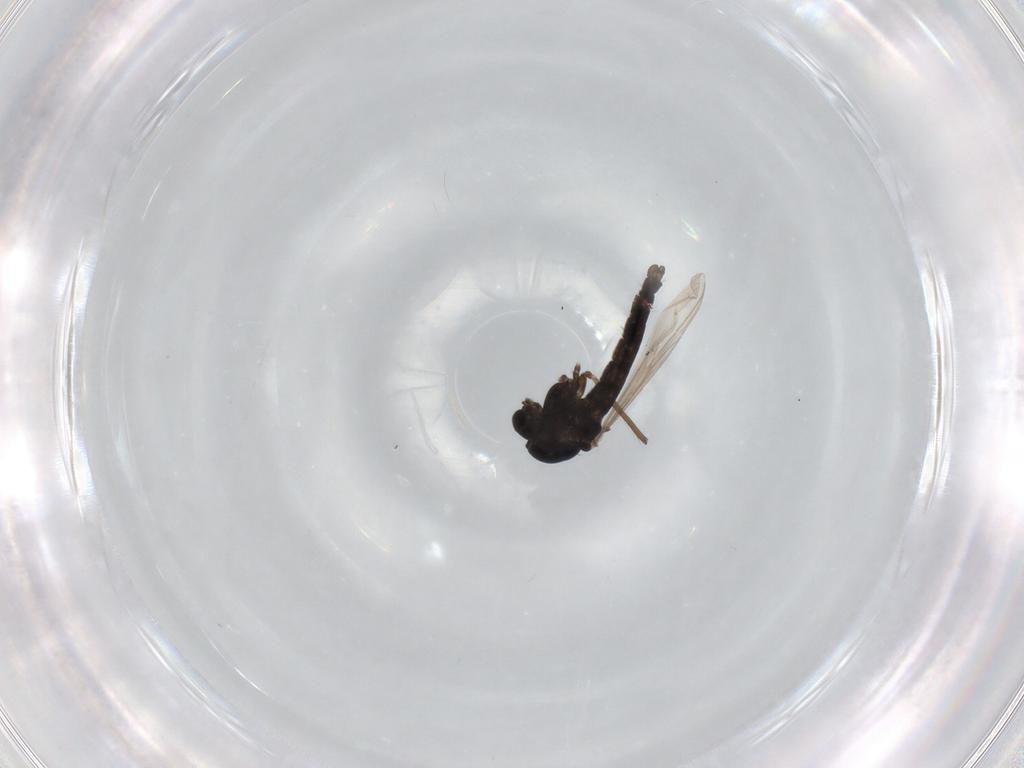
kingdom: Animalia
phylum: Arthropoda
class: Insecta
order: Diptera
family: Chironomidae
